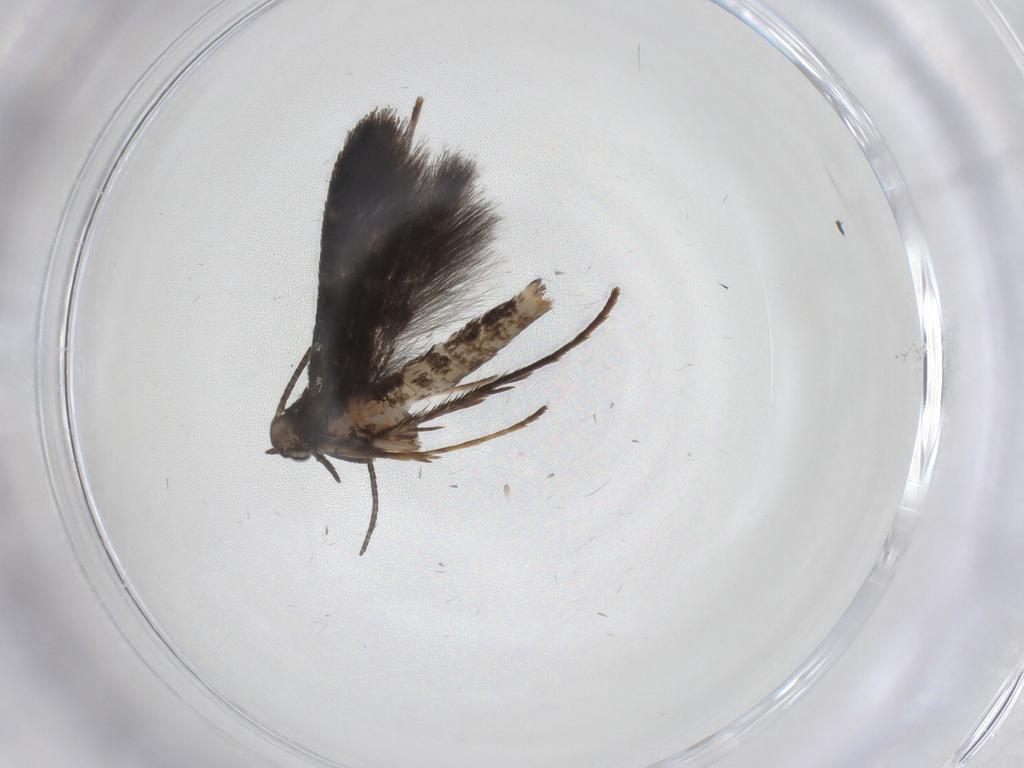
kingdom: Animalia
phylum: Arthropoda
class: Insecta
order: Lepidoptera
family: Gracillariidae
